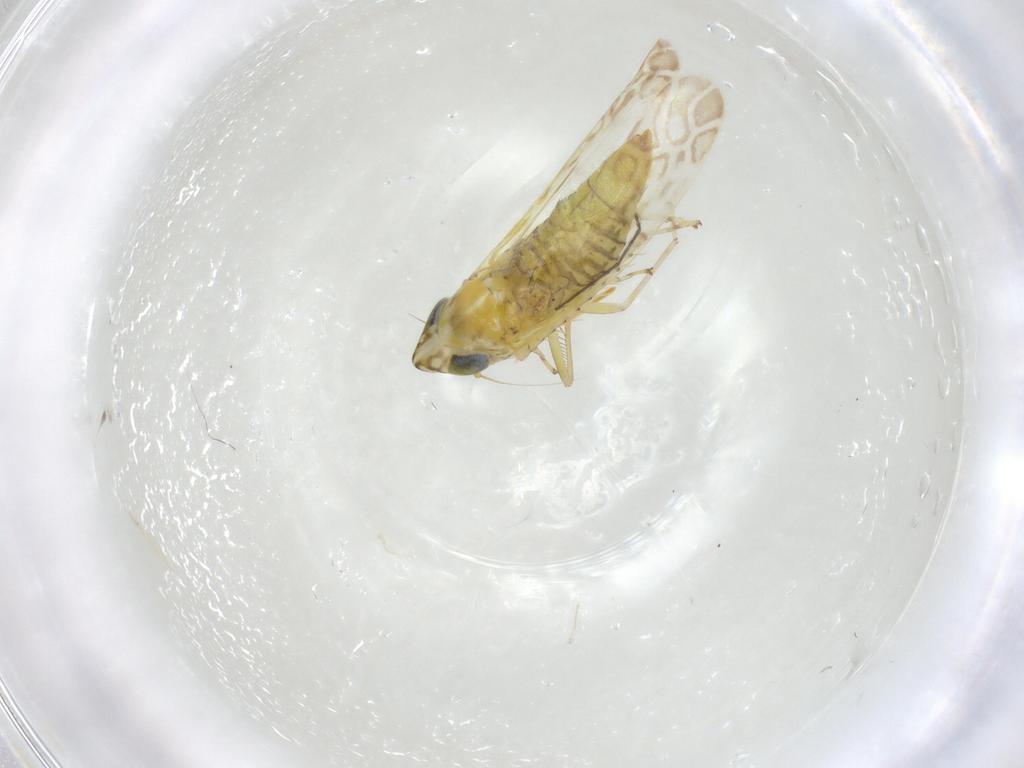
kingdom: Animalia
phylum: Arthropoda
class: Insecta
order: Hemiptera
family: Cicadellidae
